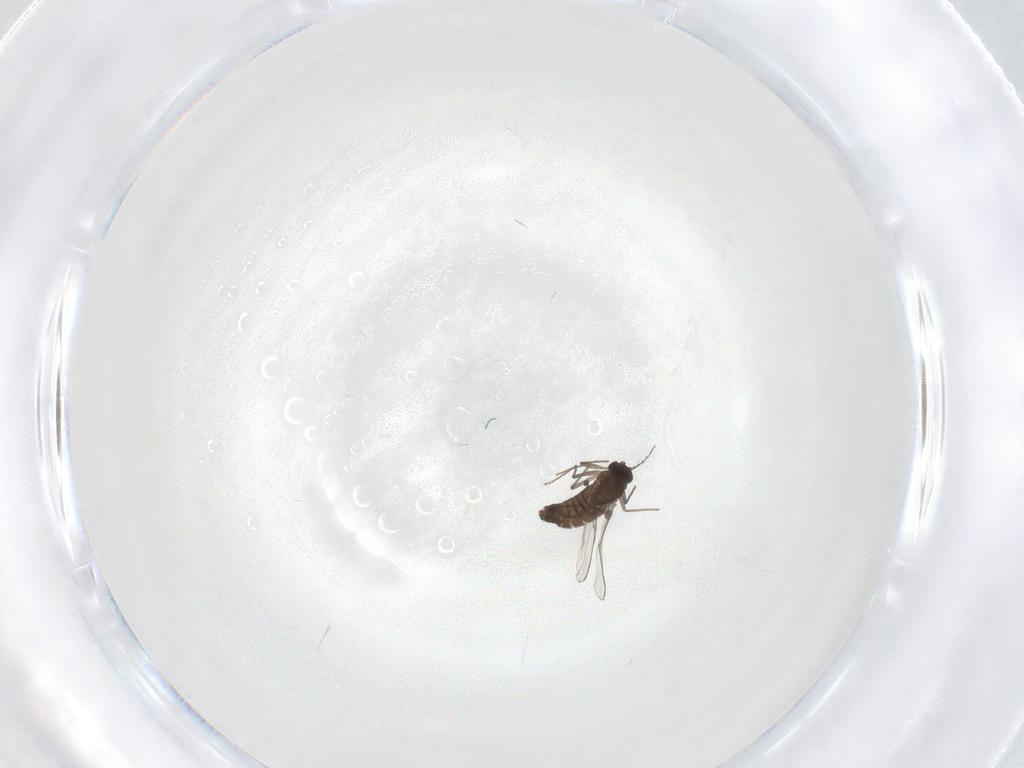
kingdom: Animalia
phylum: Arthropoda
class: Insecta
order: Diptera
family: Chironomidae
